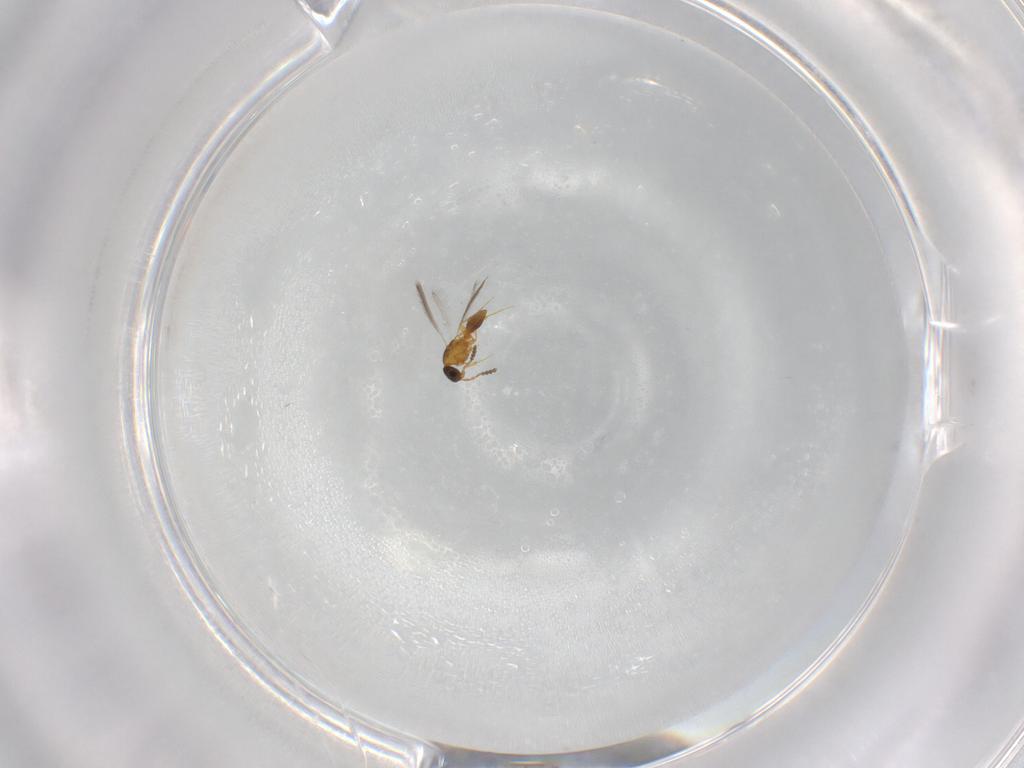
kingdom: Animalia
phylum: Arthropoda
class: Insecta
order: Hymenoptera
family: Platygastridae
